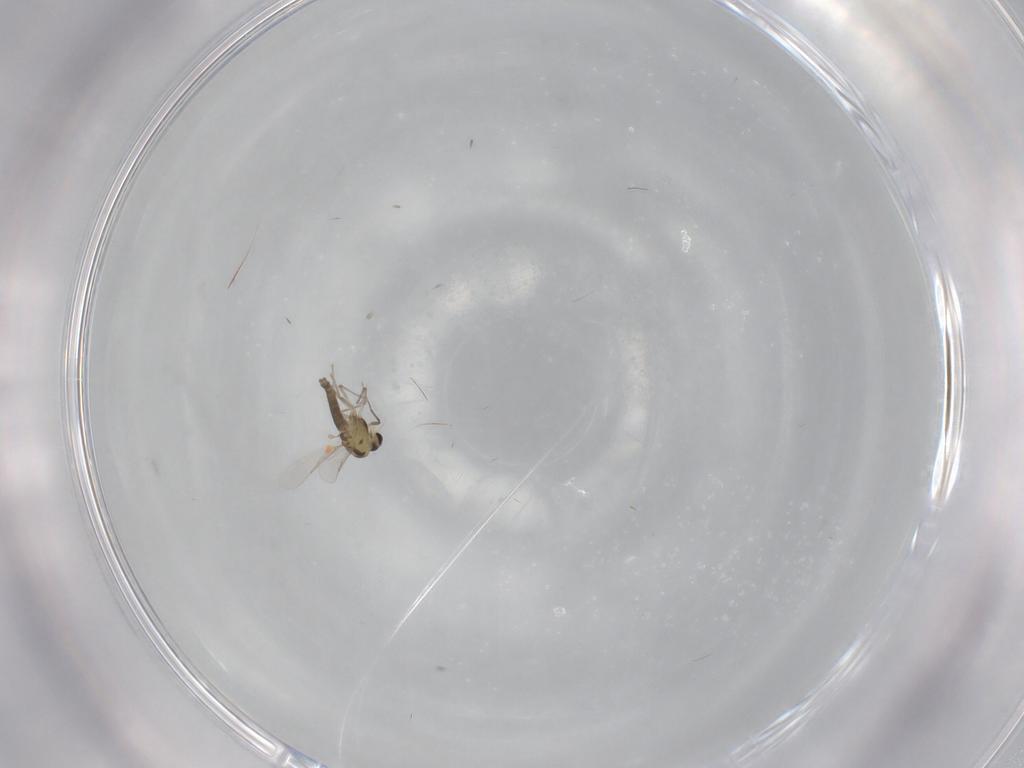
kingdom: Animalia
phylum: Arthropoda
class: Insecta
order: Diptera
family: Chironomidae
